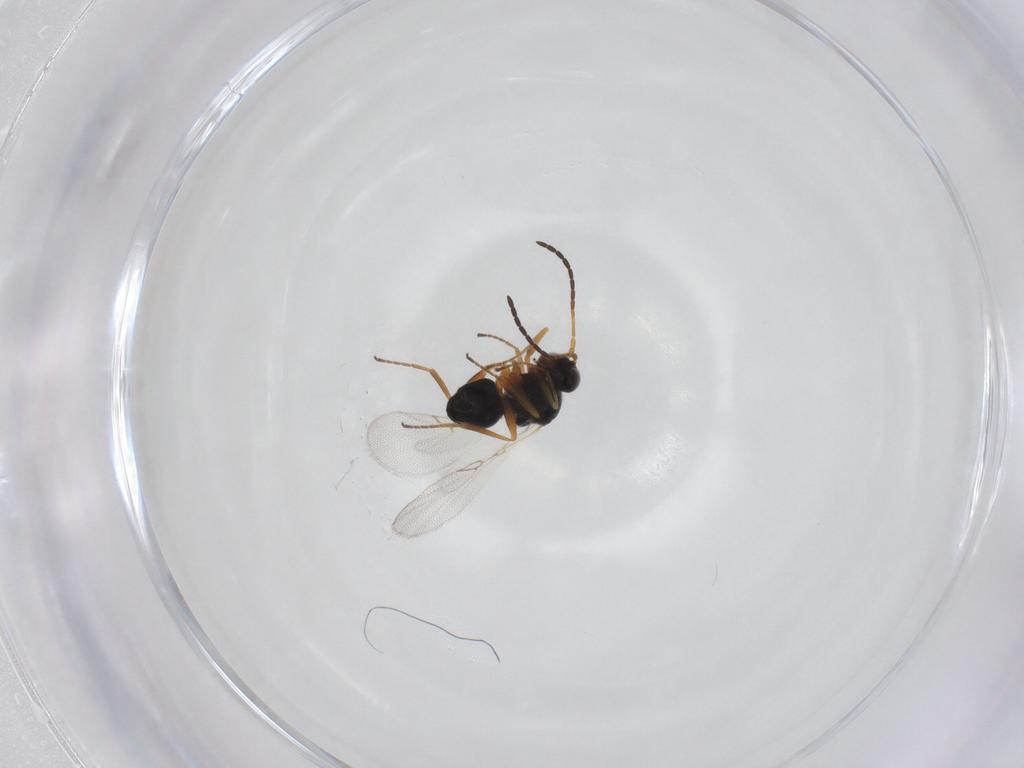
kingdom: Animalia
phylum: Arthropoda
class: Insecta
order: Hymenoptera
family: Figitidae
